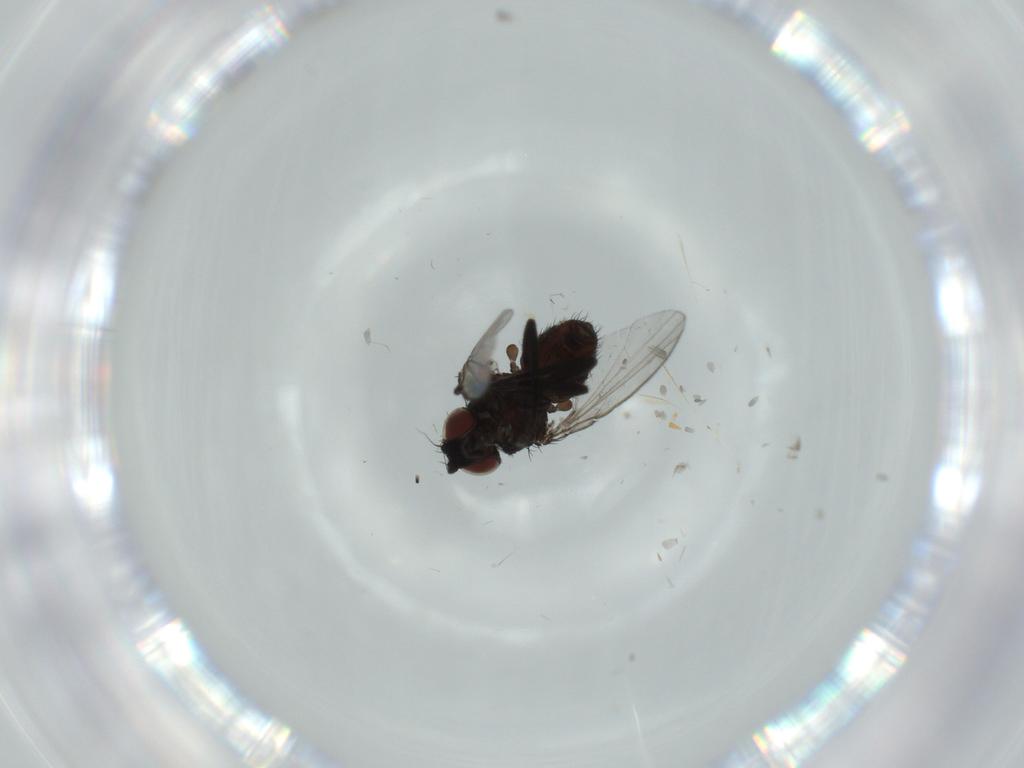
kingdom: Animalia
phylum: Arthropoda
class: Insecta
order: Diptera
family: Milichiidae
